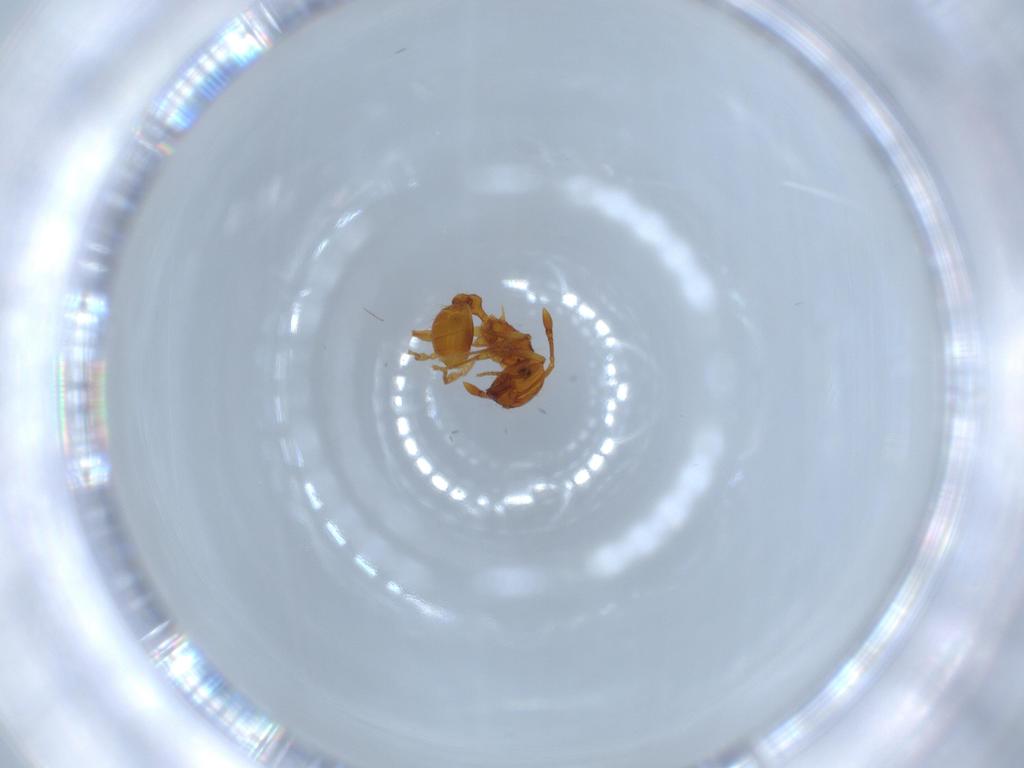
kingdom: Animalia
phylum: Arthropoda
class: Insecta
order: Hymenoptera
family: Formicidae
